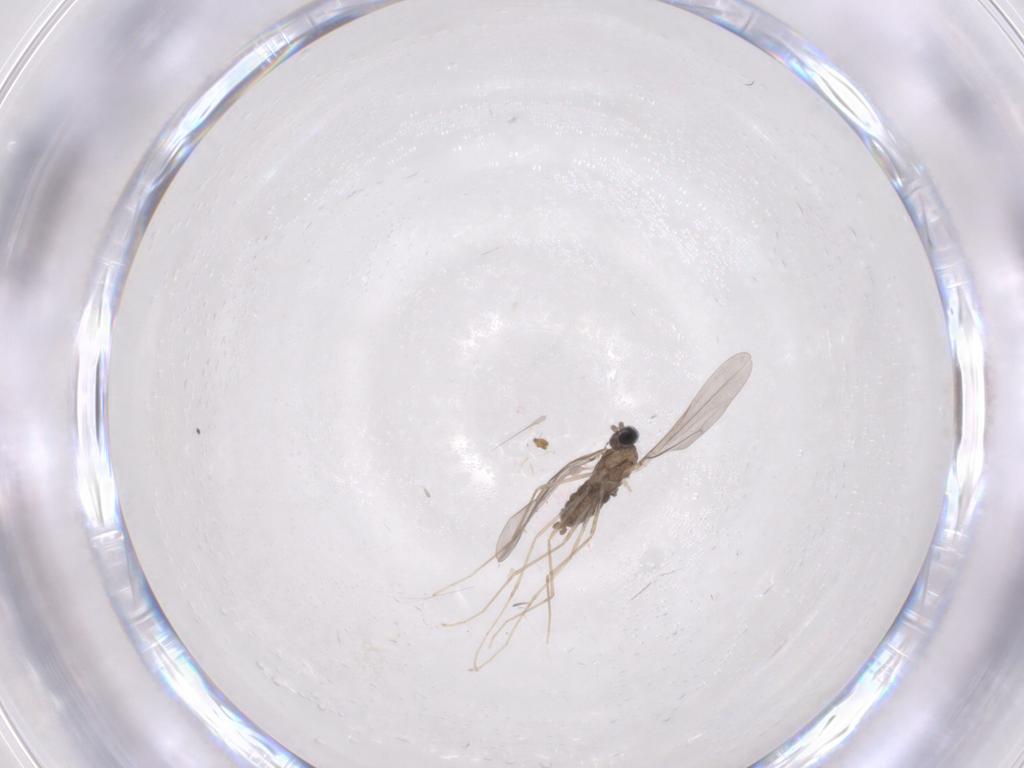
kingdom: Animalia
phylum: Arthropoda
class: Insecta
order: Diptera
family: Cecidomyiidae
